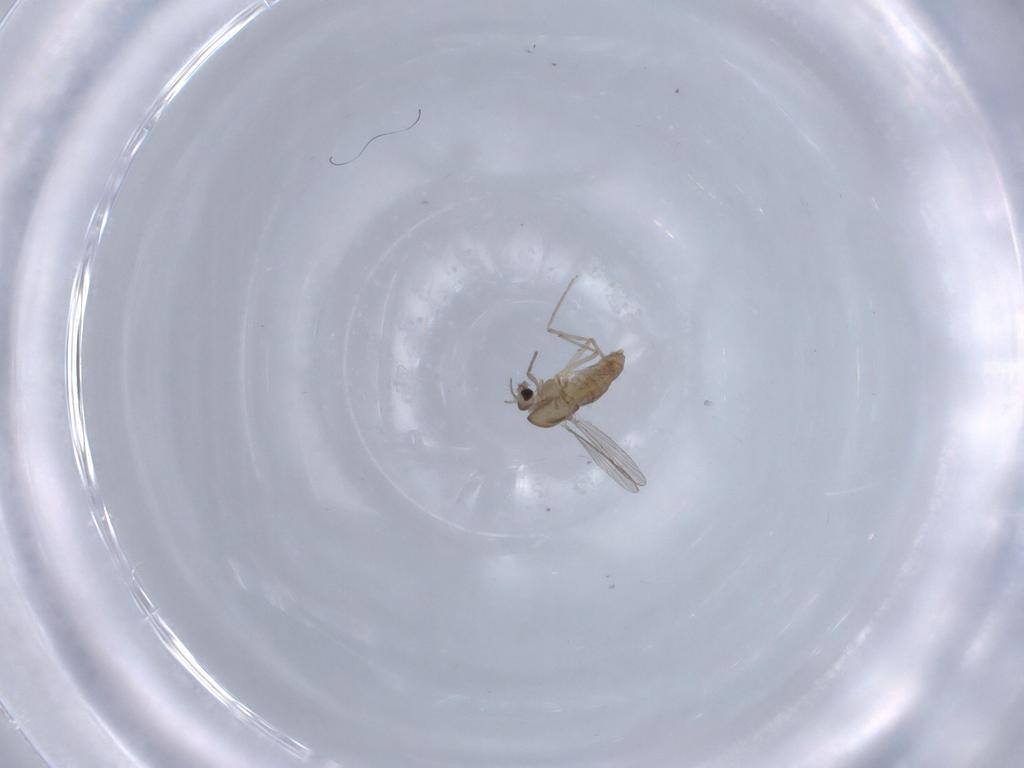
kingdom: Animalia
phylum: Arthropoda
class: Insecta
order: Diptera
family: Chironomidae
